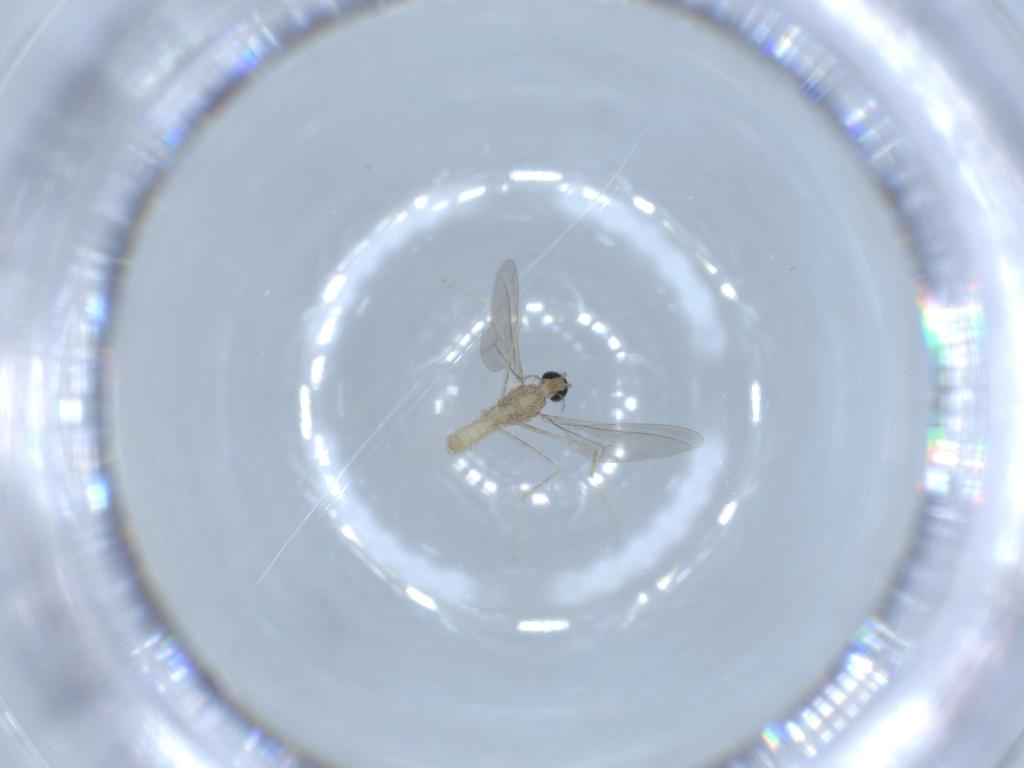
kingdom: Animalia
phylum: Arthropoda
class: Insecta
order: Diptera
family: Cecidomyiidae
